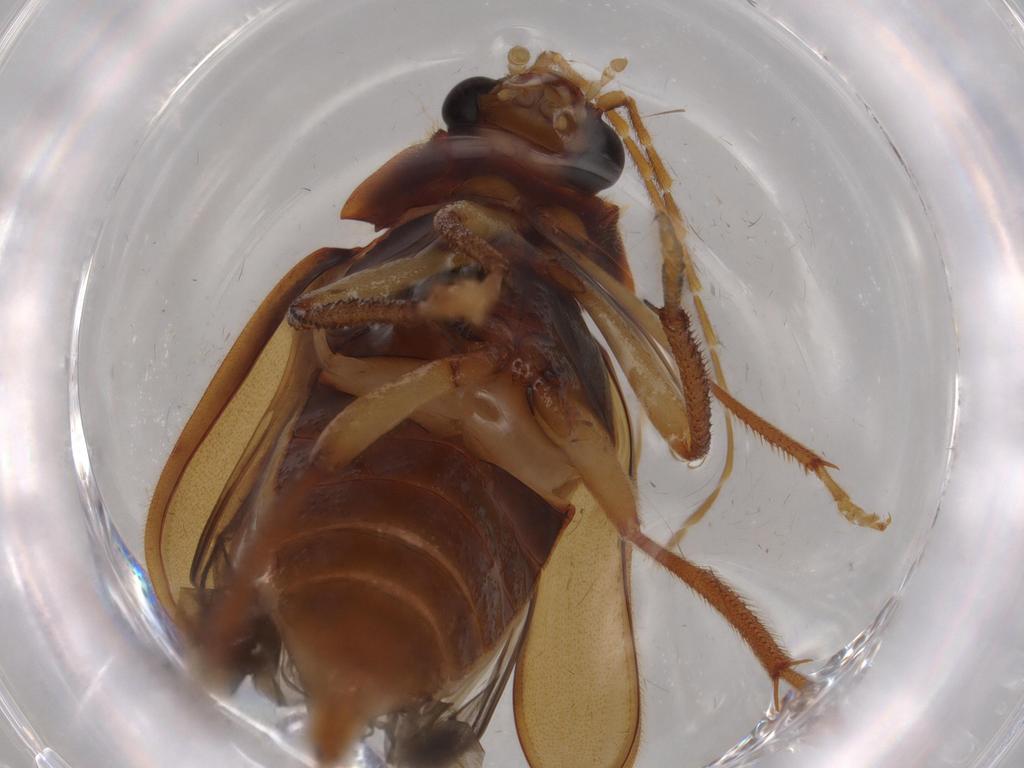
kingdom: Animalia
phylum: Arthropoda
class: Insecta
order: Coleoptera
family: Ptilodactylidae
